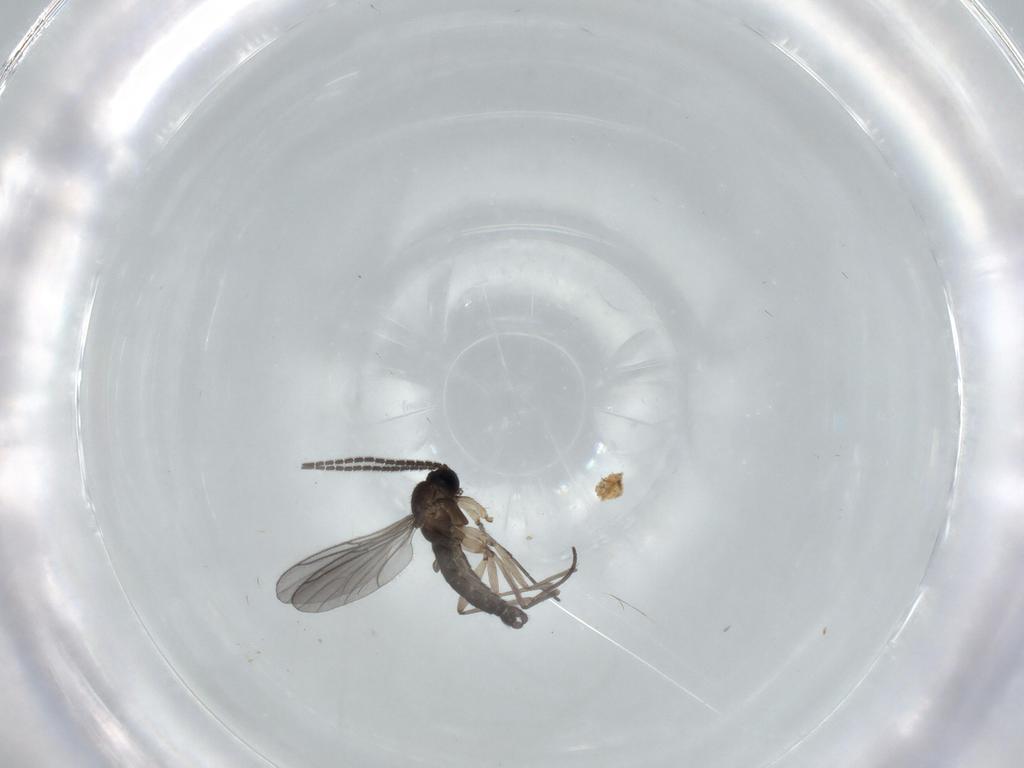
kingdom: Animalia
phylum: Arthropoda
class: Insecta
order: Diptera
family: Sciaridae
